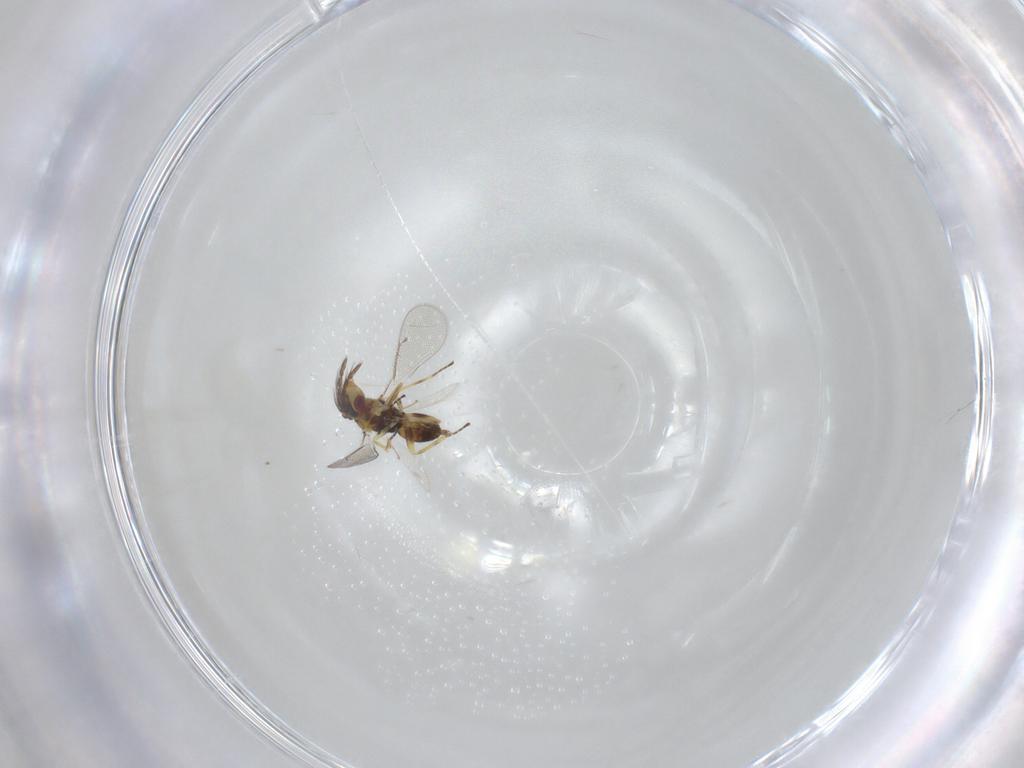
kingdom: Animalia
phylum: Arthropoda
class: Insecta
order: Hymenoptera
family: Eulophidae
